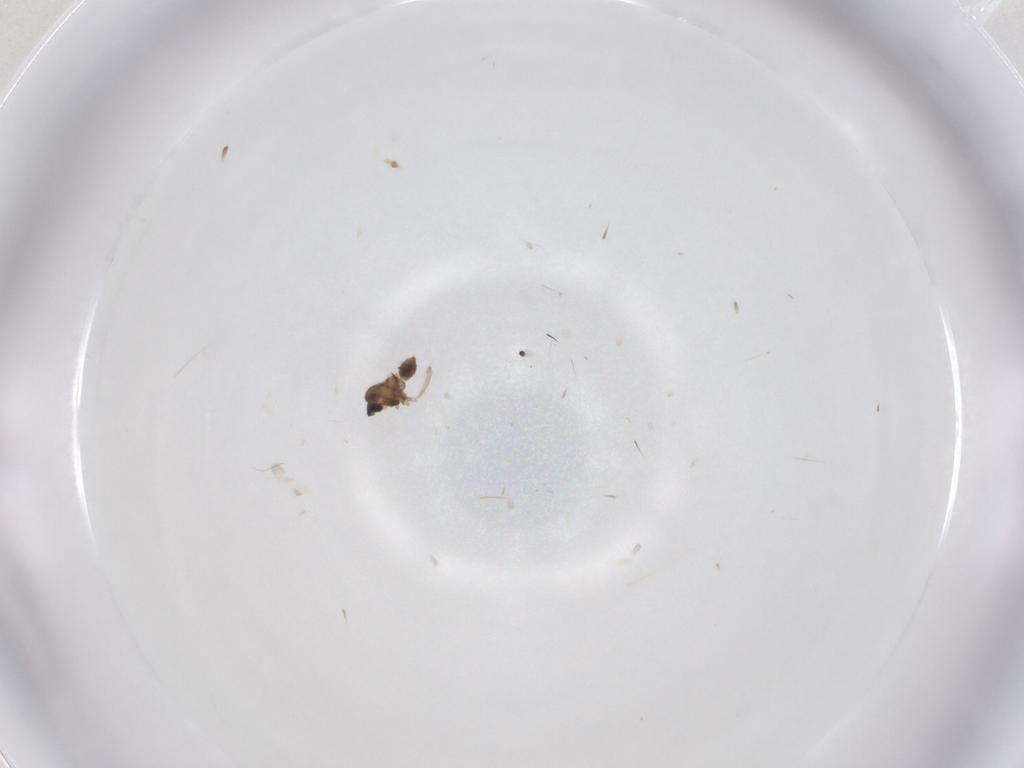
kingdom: Animalia
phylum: Arthropoda
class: Insecta
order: Diptera
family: Cecidomyiidae
